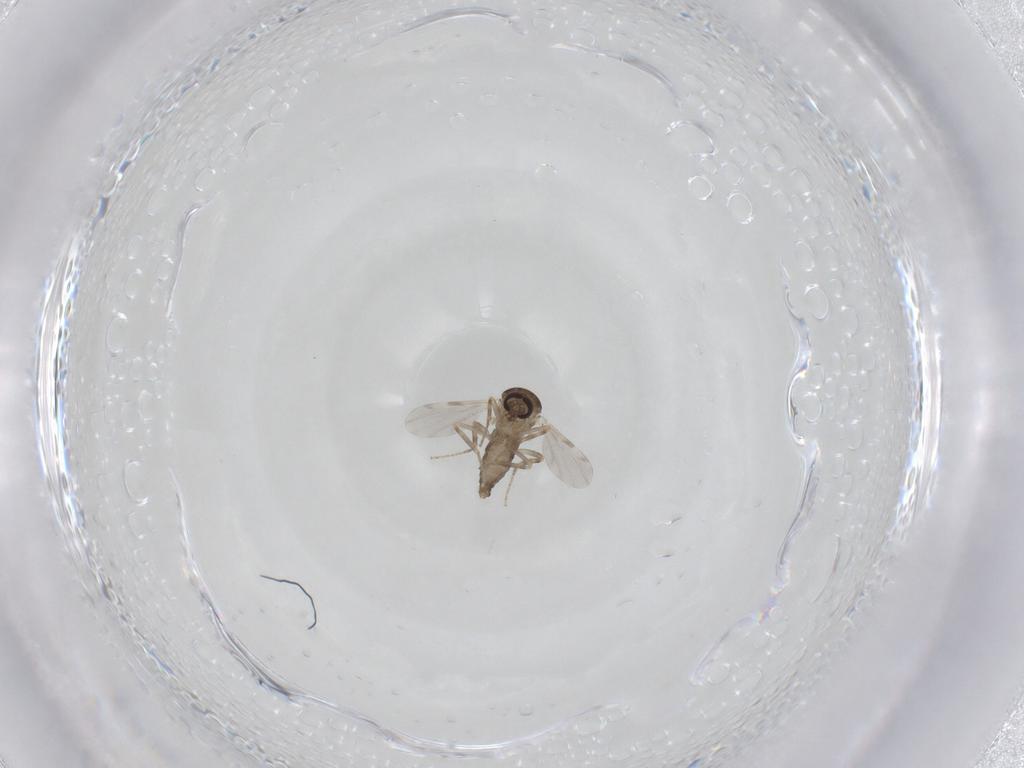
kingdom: Animalia
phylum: Arthropoda
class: Insecta
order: Diptera
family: Ceratopogonidae
